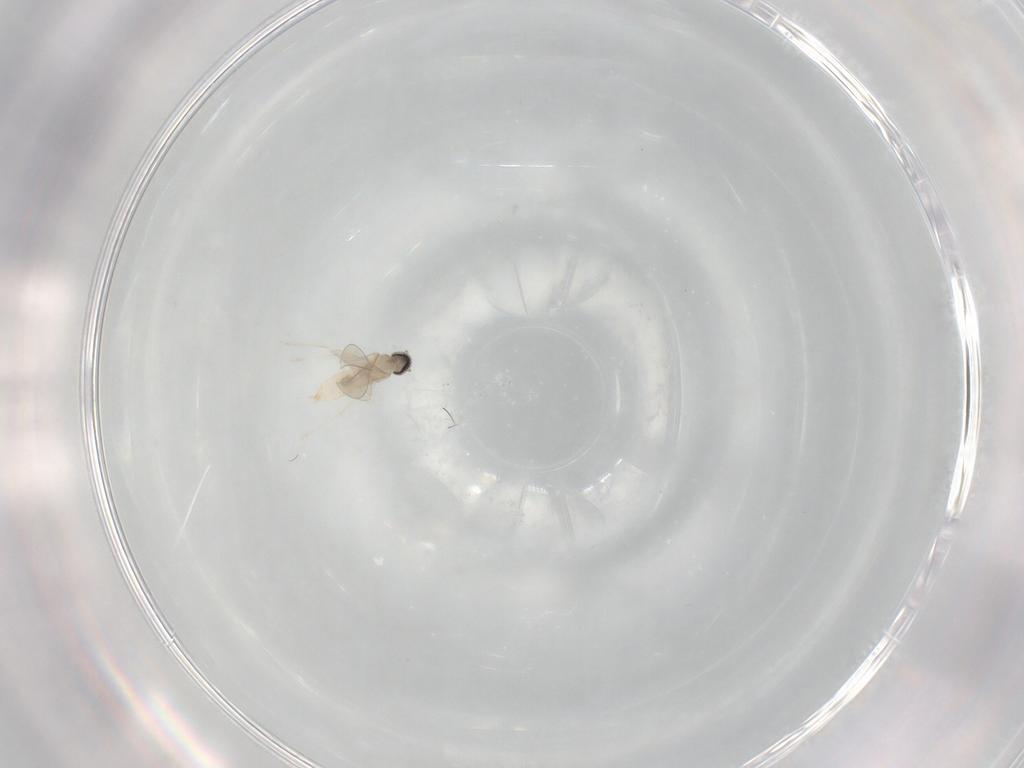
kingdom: Animalia
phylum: Arthropoda
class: Insecta
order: Diptera
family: Cecidomyiidae
